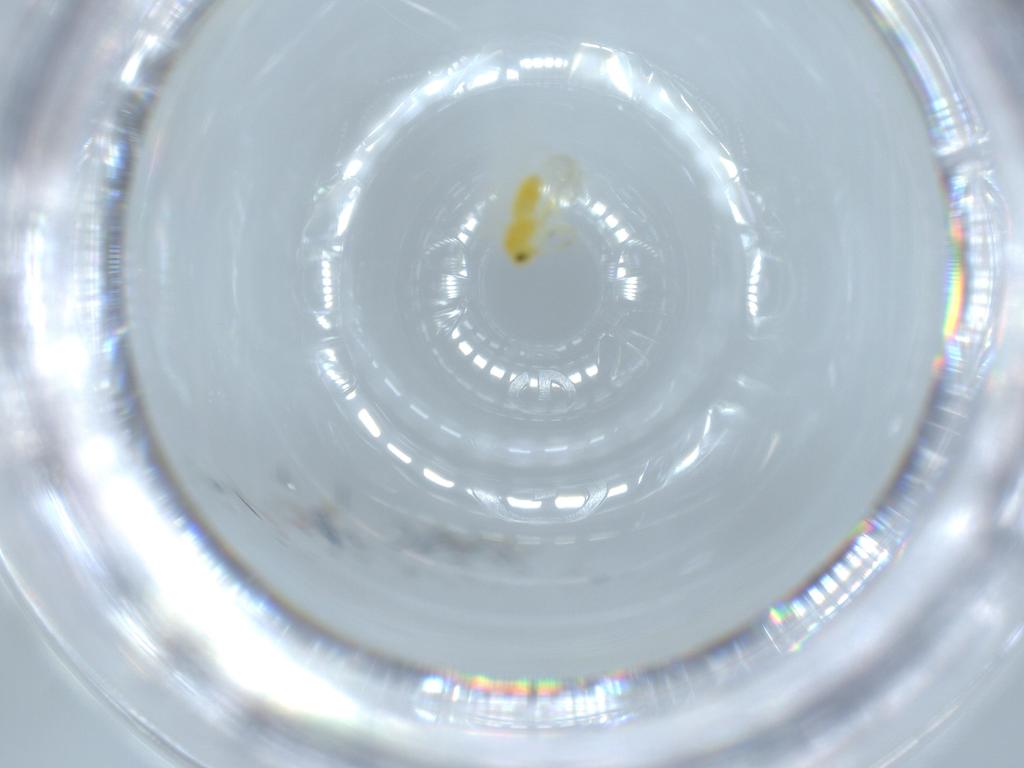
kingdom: Animalia
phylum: Arthropoda
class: Insecta
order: Hemiptera
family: Aleyrodidae
